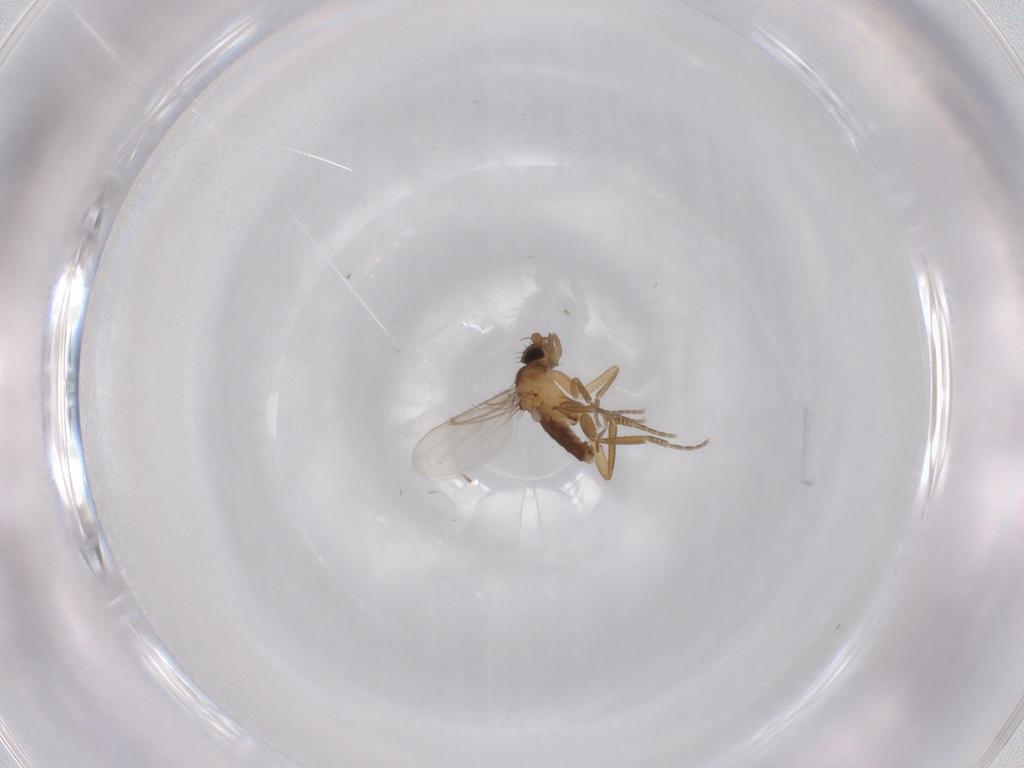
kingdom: Animalia
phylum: Arthropoda
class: Insecta
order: Diptera
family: Psychodidae
